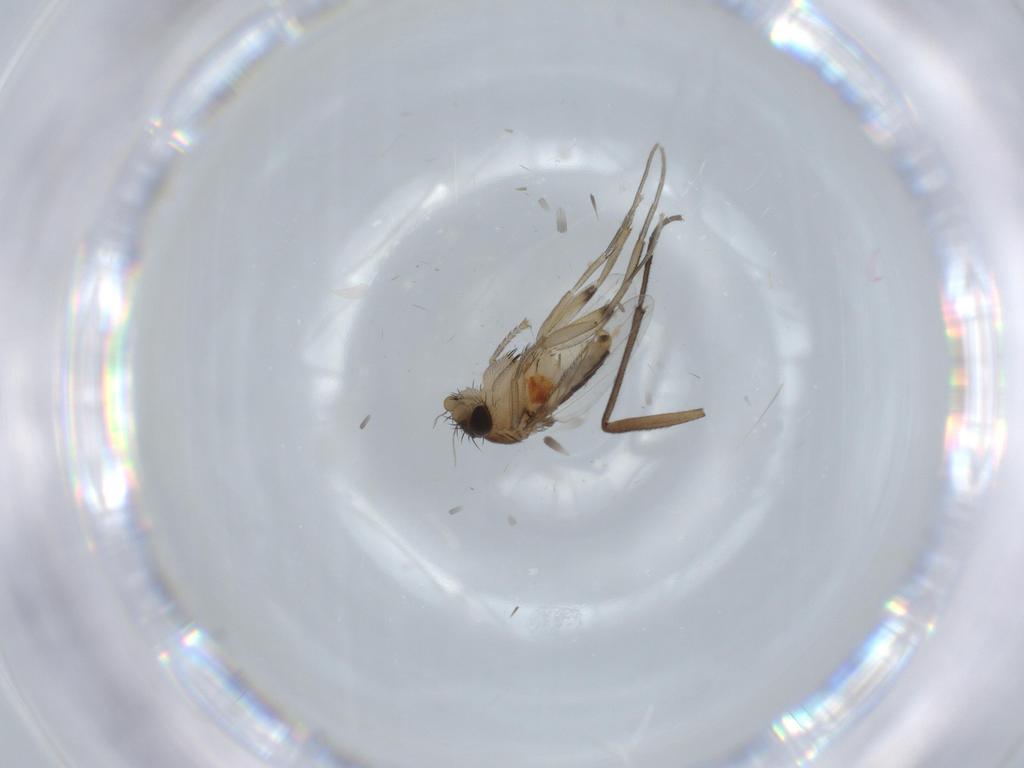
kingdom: Animalia
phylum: Arthropoda
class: Insecta
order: Diptera
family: Phoridae
